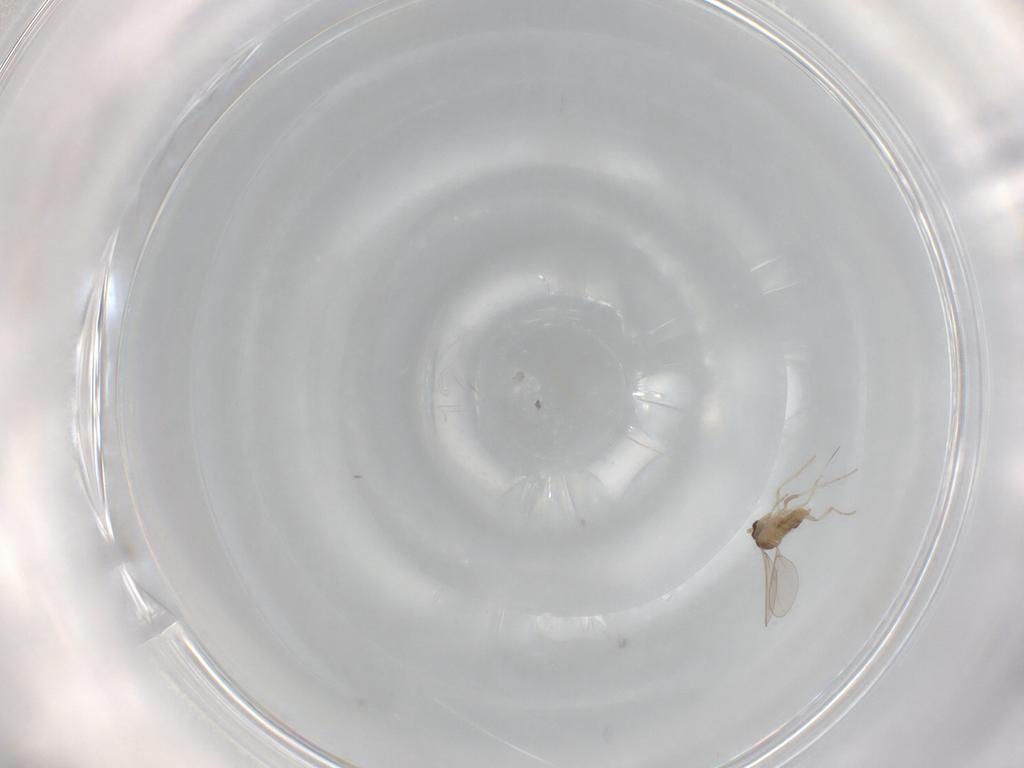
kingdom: Animalia
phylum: Arthropoda
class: Insecta
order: Diptera
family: Cecidomyiidae
